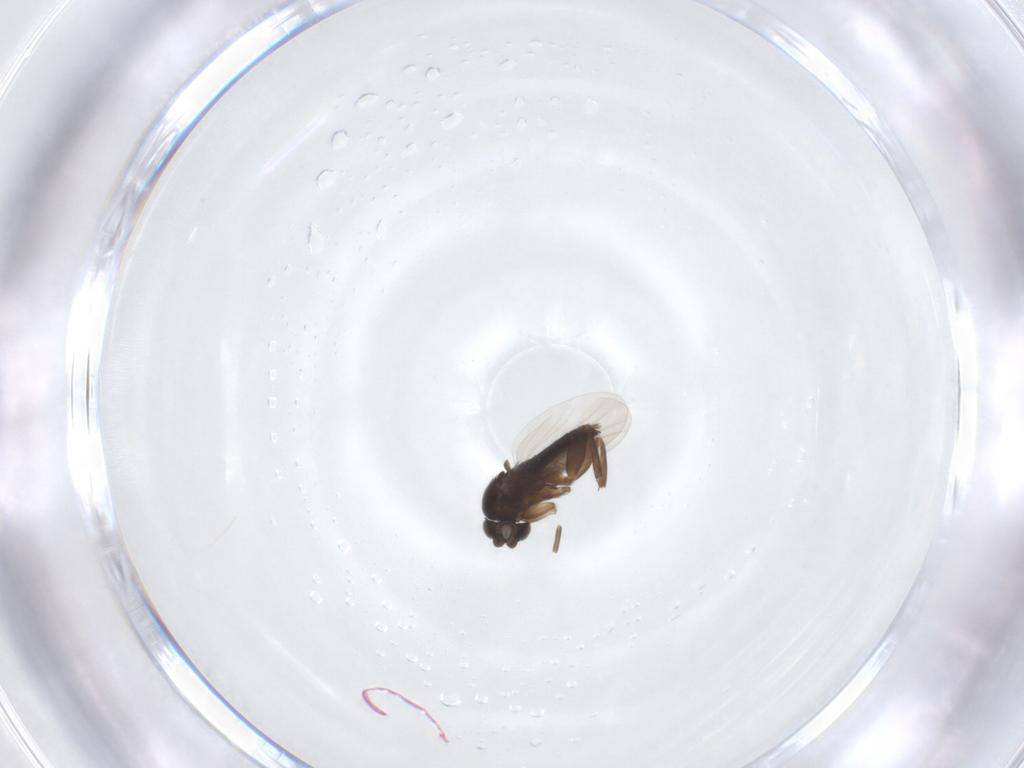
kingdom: Animalia
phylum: Arthropoda
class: Insecta
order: Diptera
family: Phoridae
